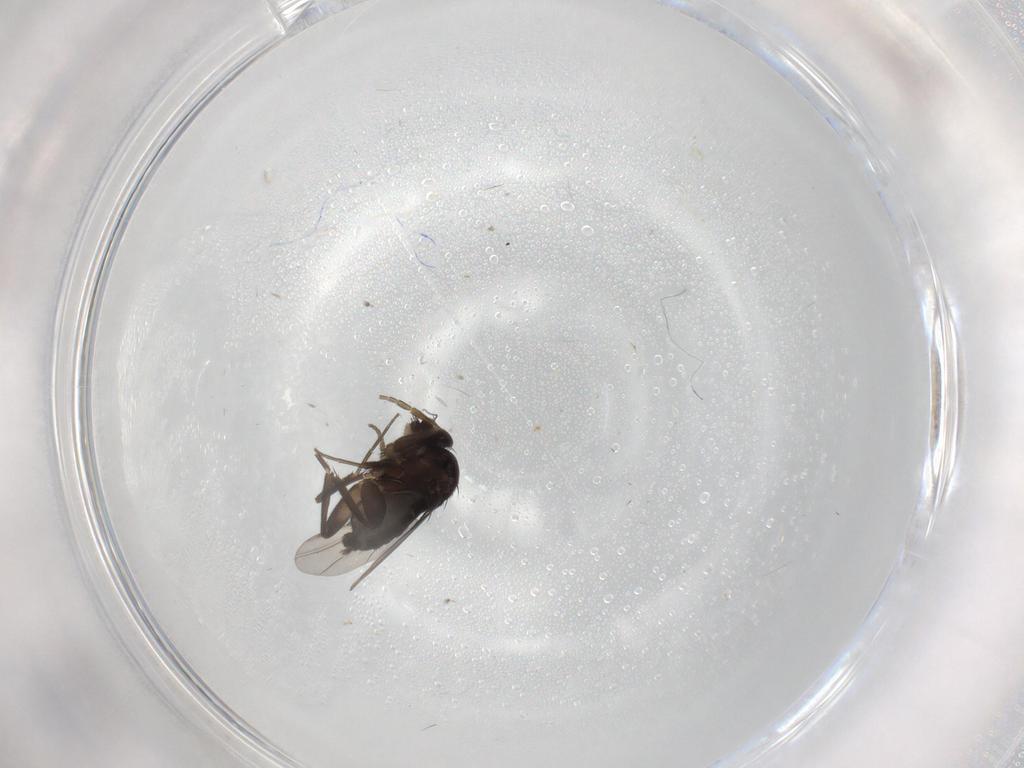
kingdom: Animalia
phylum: Arthropoda
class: Insecta
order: Diptera
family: Phoridae
